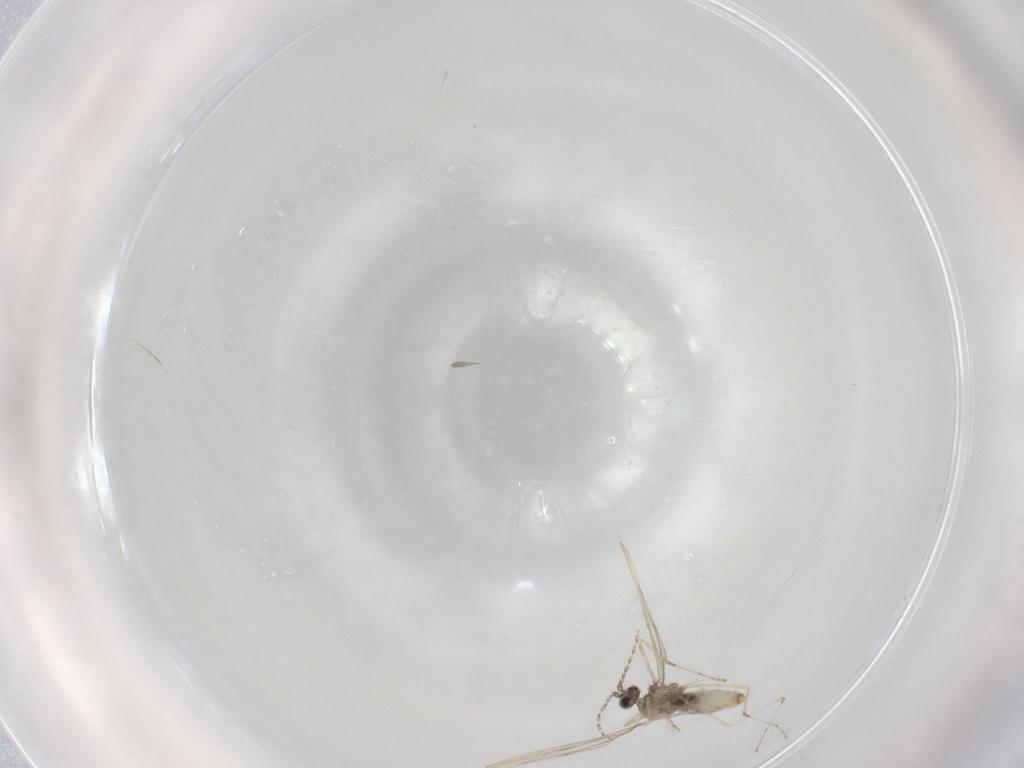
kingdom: Animalia
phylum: Arthropoda
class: Insecta
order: Diptera
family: Cecidomyiidae
